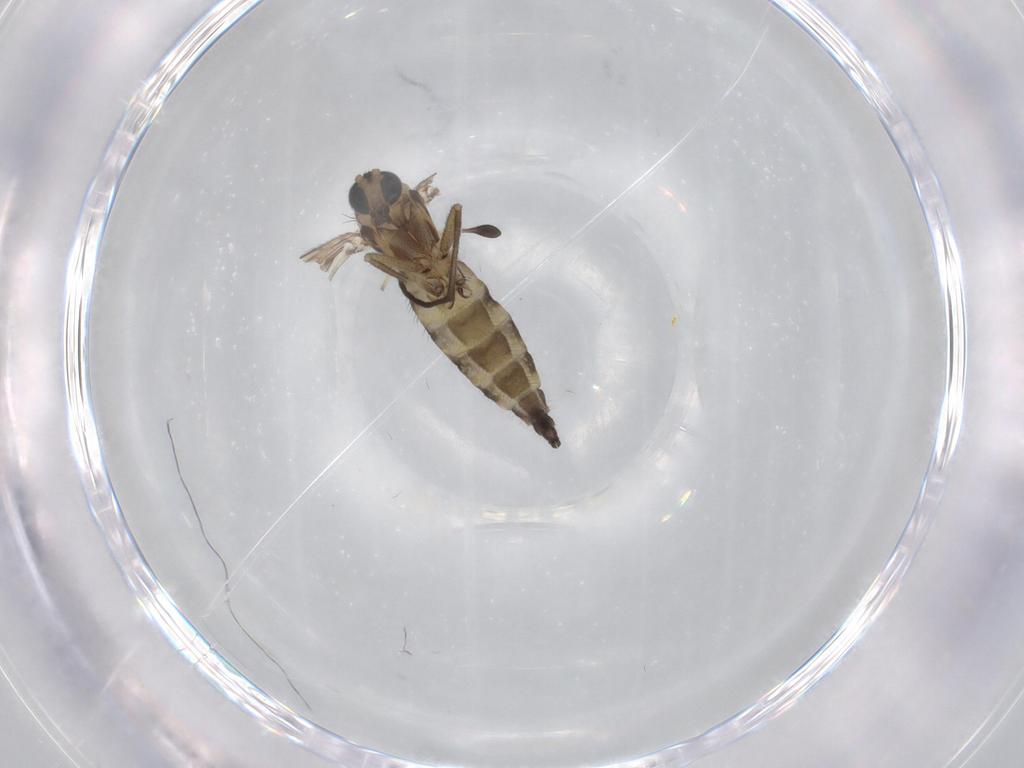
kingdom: Animalia
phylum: Arthropoda
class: Insecta
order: Diptera
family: Sciaridae
